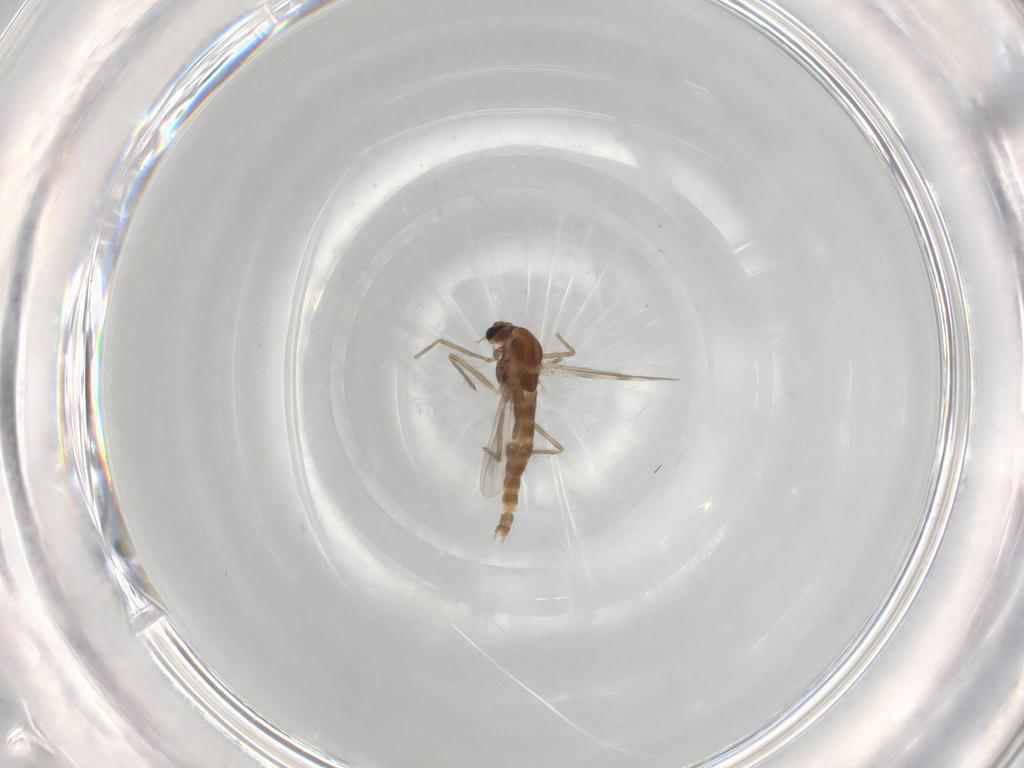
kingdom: Animalia
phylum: Arthropoda
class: Insecta
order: Diptera
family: Chironomidae
